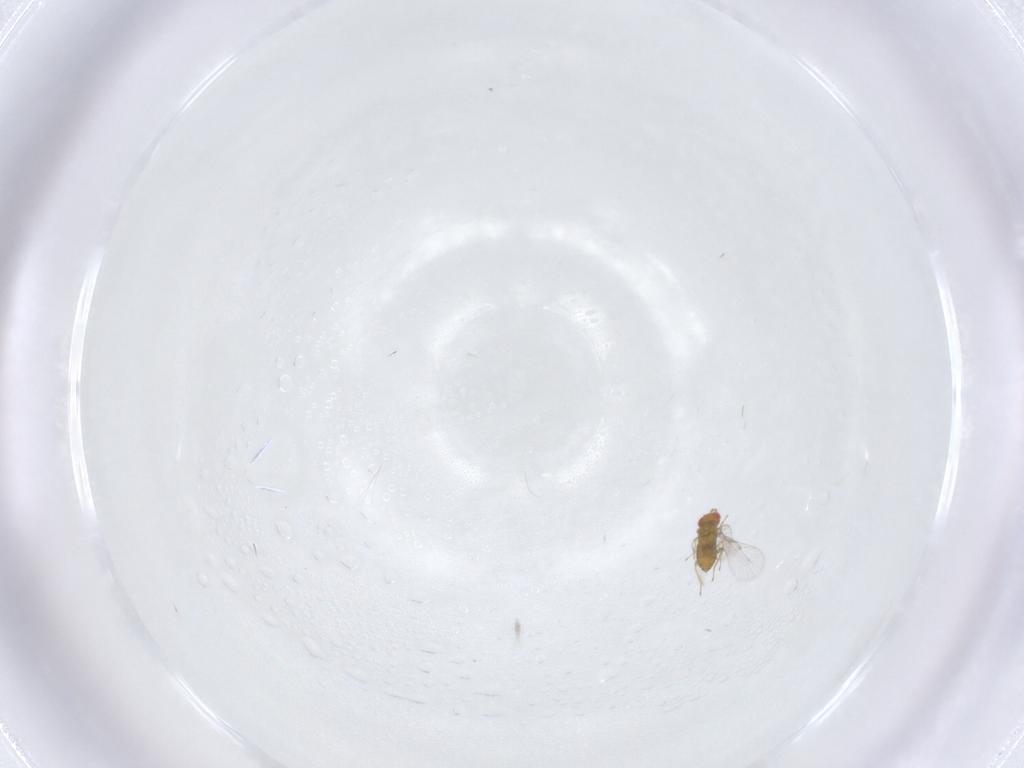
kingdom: Animalia
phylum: Arthropoda
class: Insecta
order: Hymenoptera
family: Trichogrammatidae
